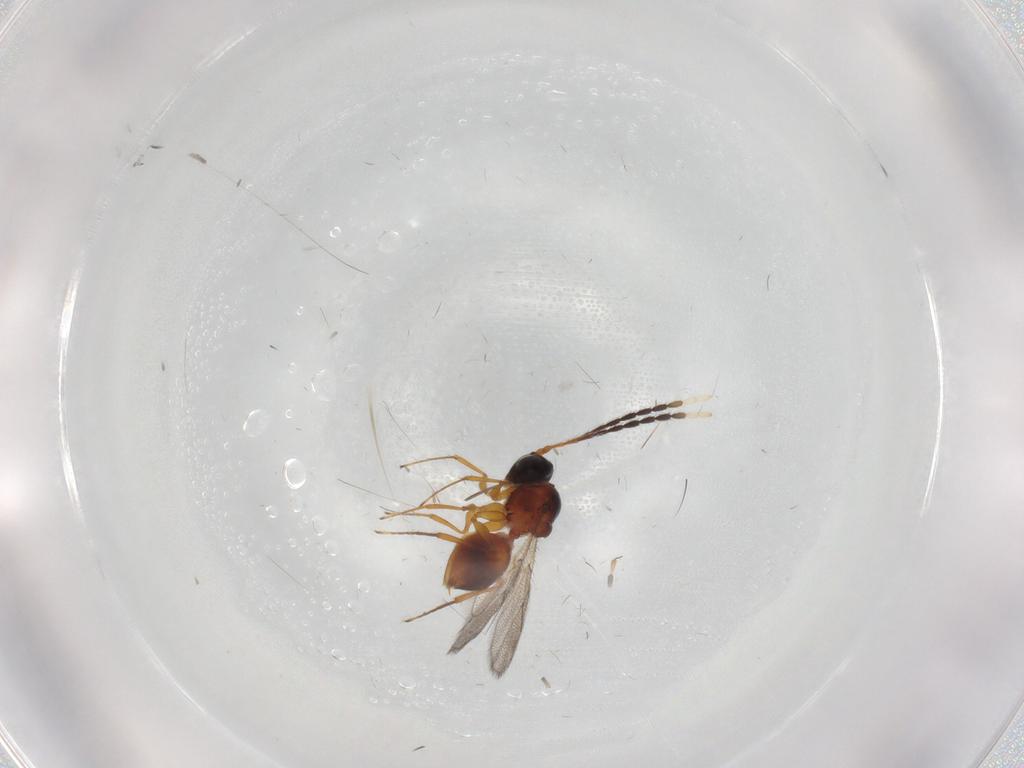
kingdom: Animalia
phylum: Arthropoda
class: Insecta
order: Hymenoptera
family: Figitidae
